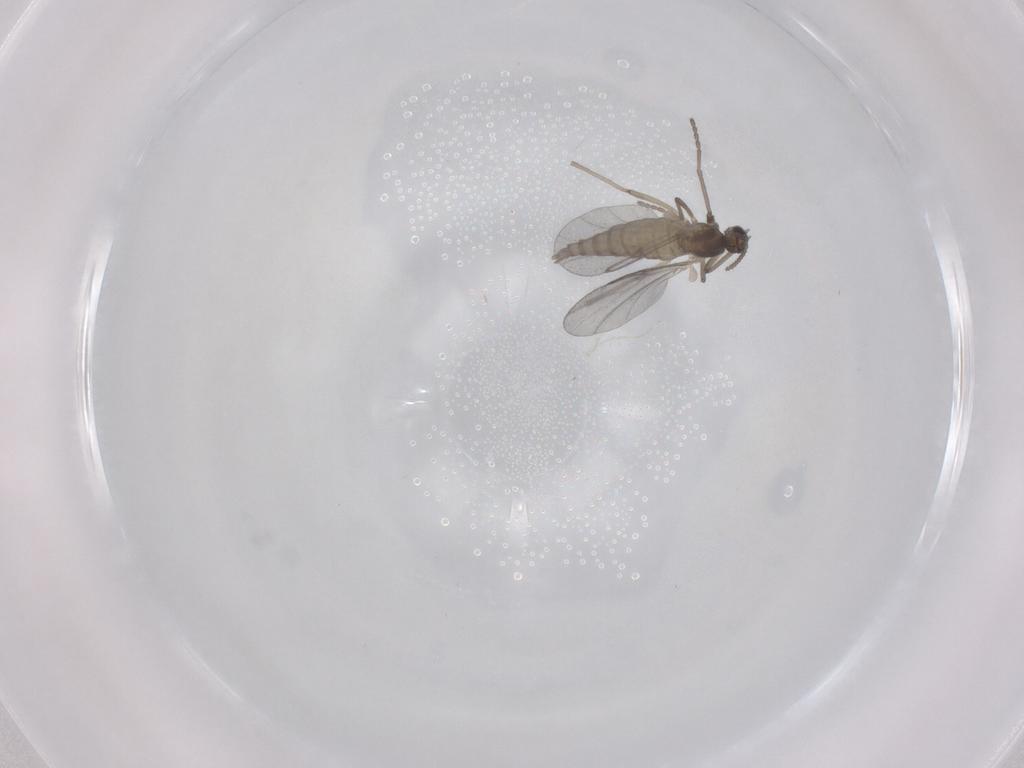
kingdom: Animalia
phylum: Arthropoda
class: Insecta
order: Diptera
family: Cecidomyiidae
